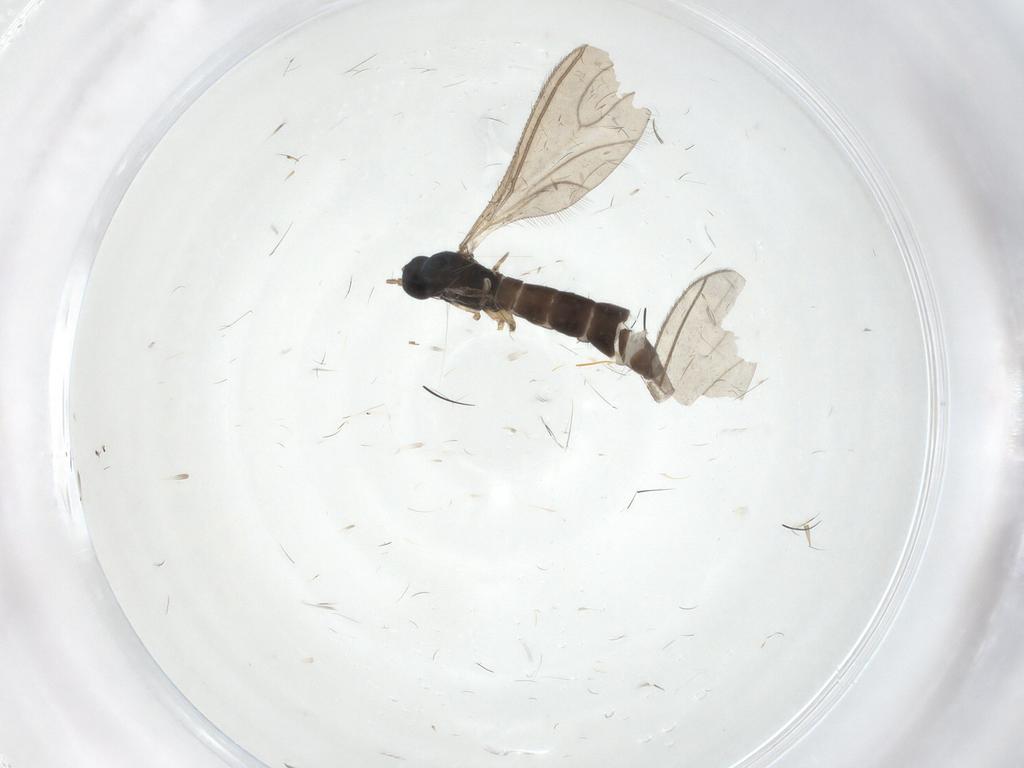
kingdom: Animalia
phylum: Arthropoda
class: Insecta
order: Diptera
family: Sciaridae
